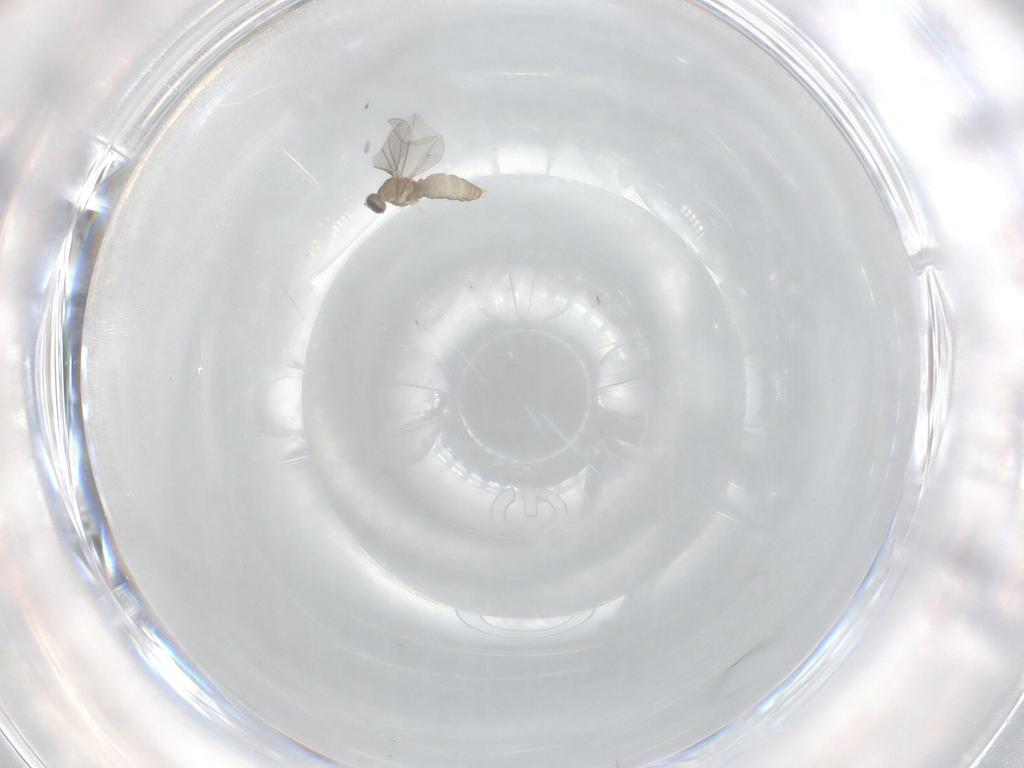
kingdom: Animalia
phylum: Arthropoda
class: Insecta
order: Diptera
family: Cecidomyiidae
